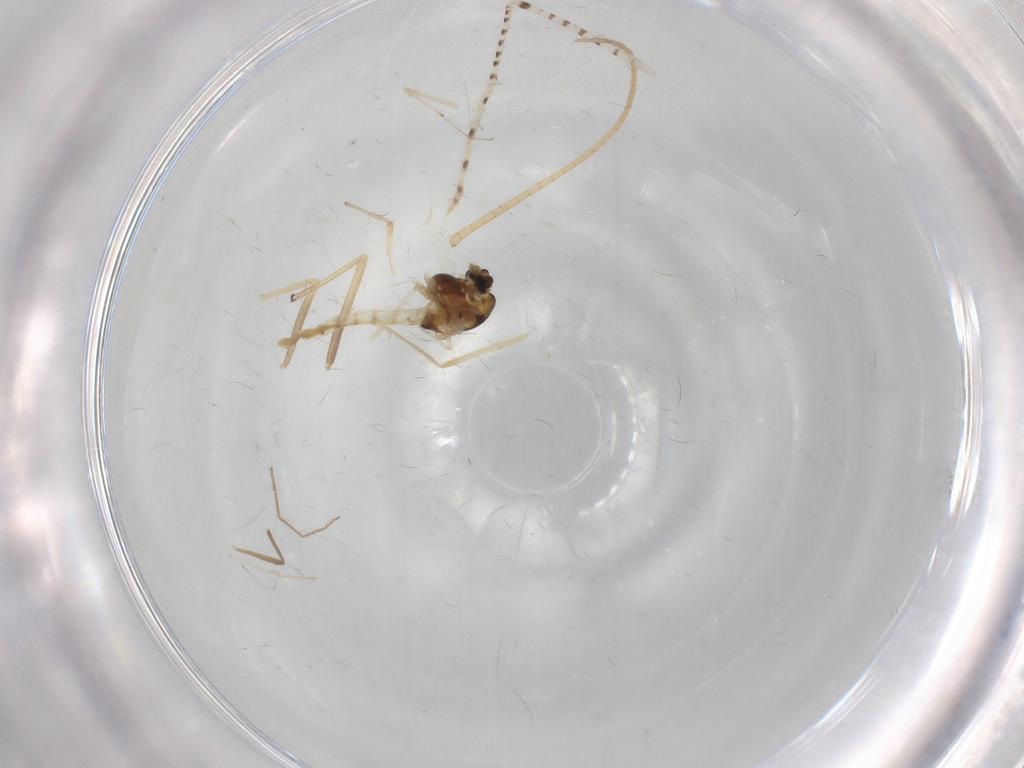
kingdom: Animalia
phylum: Arthropoda
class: Insecta
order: Diptera
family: Chironomidae
